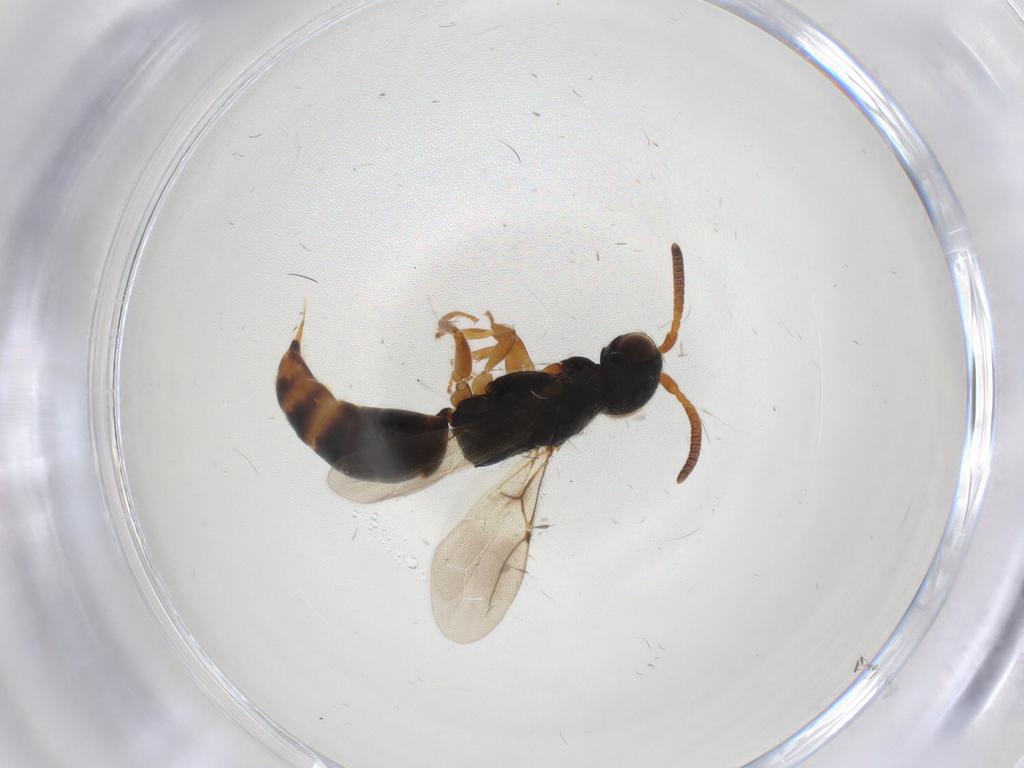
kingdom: Animalia
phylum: Arthropoda
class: Insecta
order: Hymenoptera
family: Bethylidae
